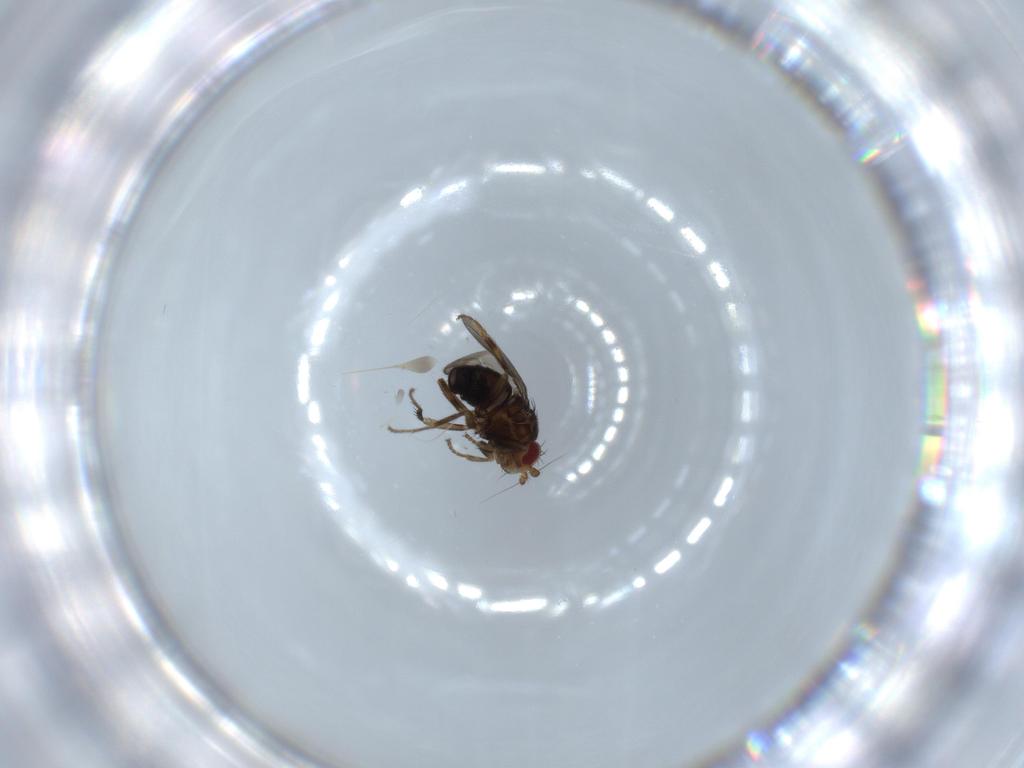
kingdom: Animalia
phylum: Arthropoda
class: Insecta
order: Diptera
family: Sphaeroceridae
